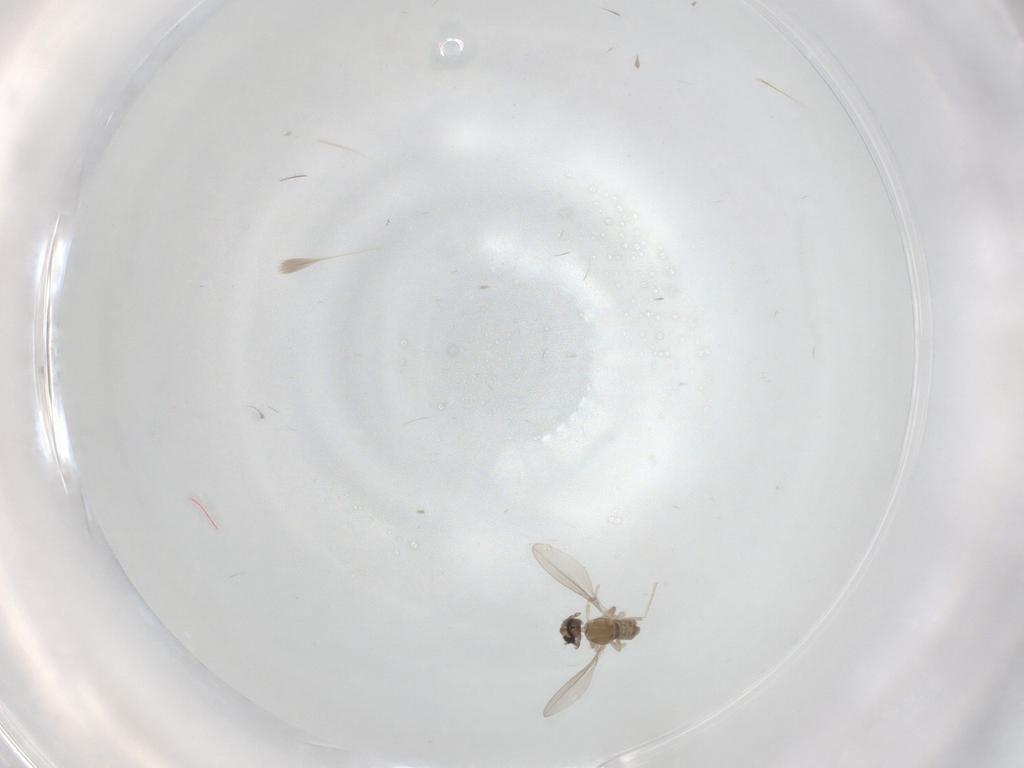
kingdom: Animalia
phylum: Arthropoda
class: Insecta
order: Diptera
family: Cecidomyiidae
